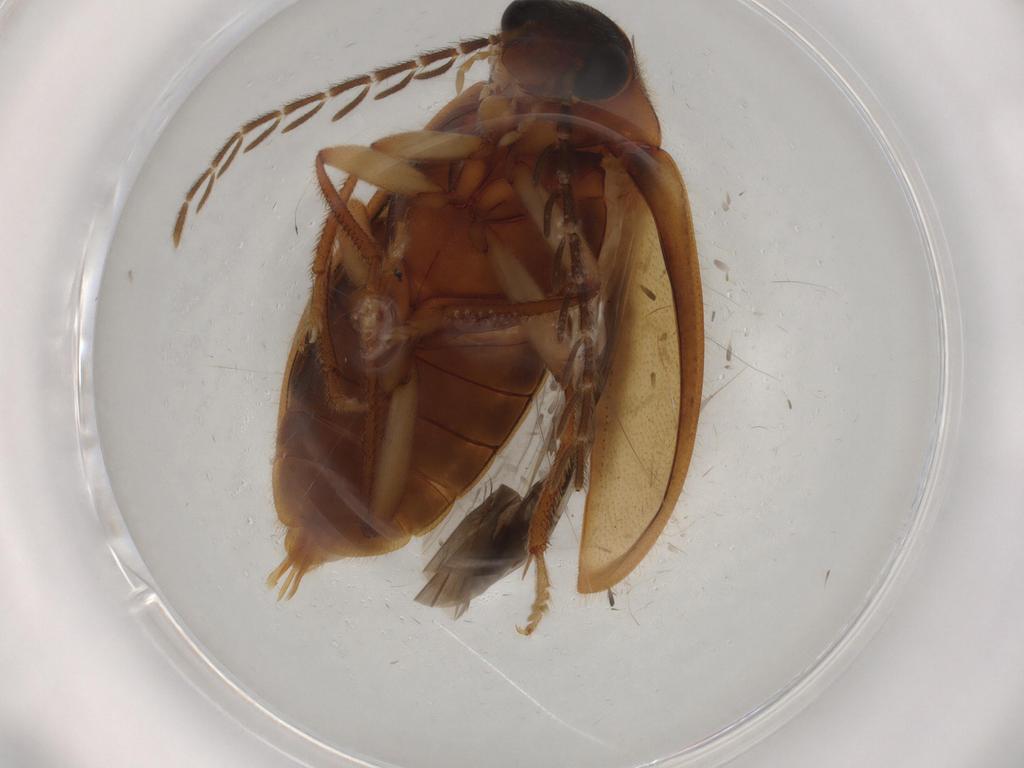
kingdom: Animalia
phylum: Arthropoda
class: Insecta
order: Coleoptera
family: Ptilodactylidae
